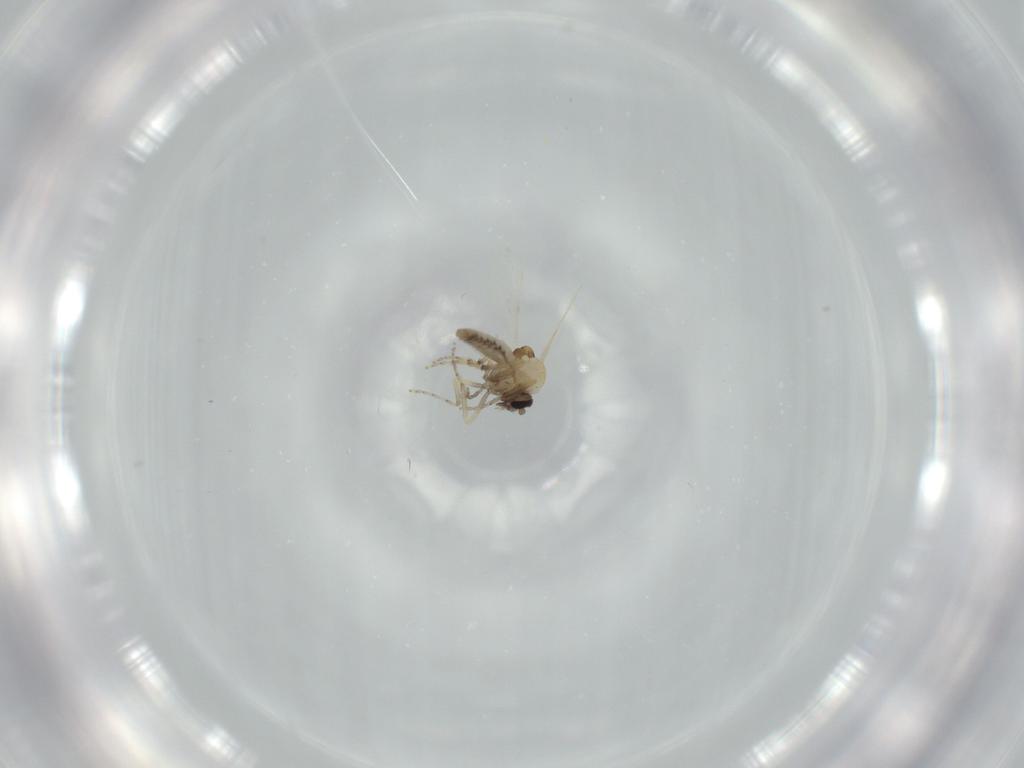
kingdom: Animalia
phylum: Arthropoda
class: Insecta
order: Diptera
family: Ceratopogonidae
